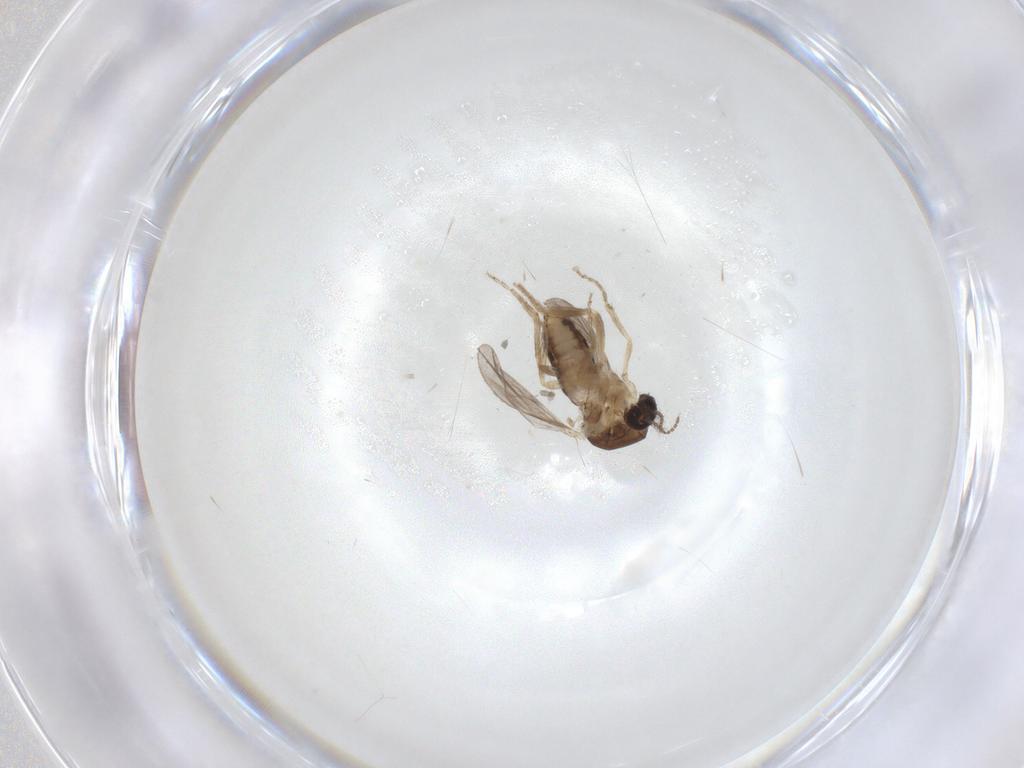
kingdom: Animalia
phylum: Arthropoda
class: Insecta
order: Diptera
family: Ceratopogonidae
